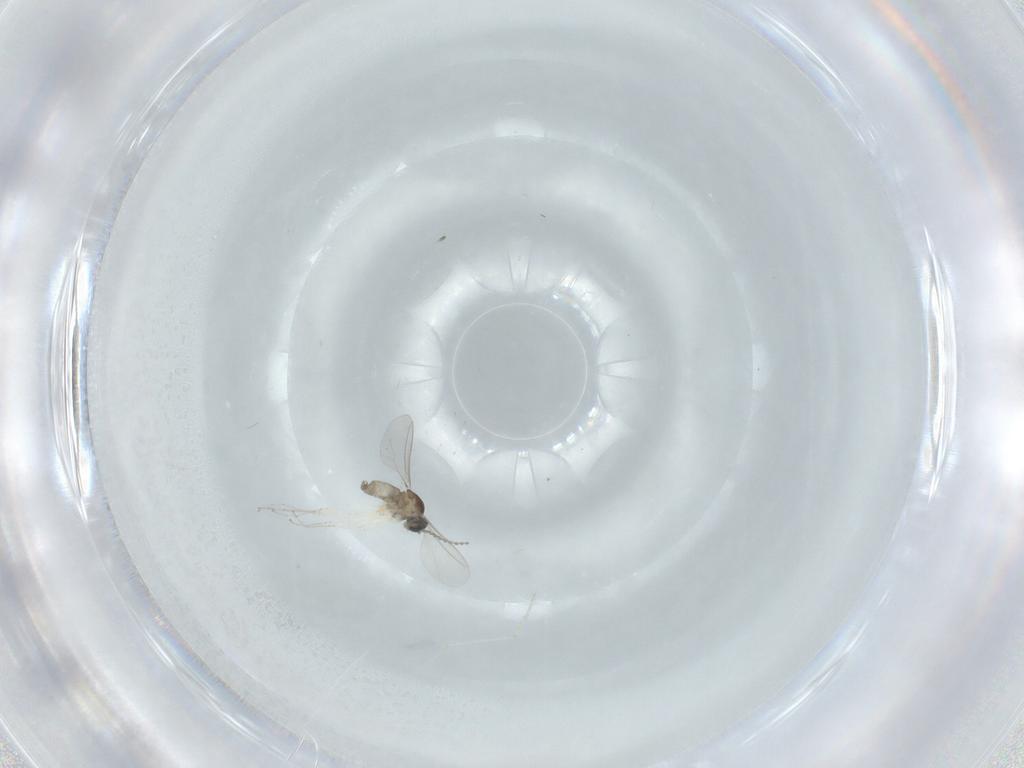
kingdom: Animalia
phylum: Arthropoda
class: Insecta
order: Diptera
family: Cecidomyiidae
